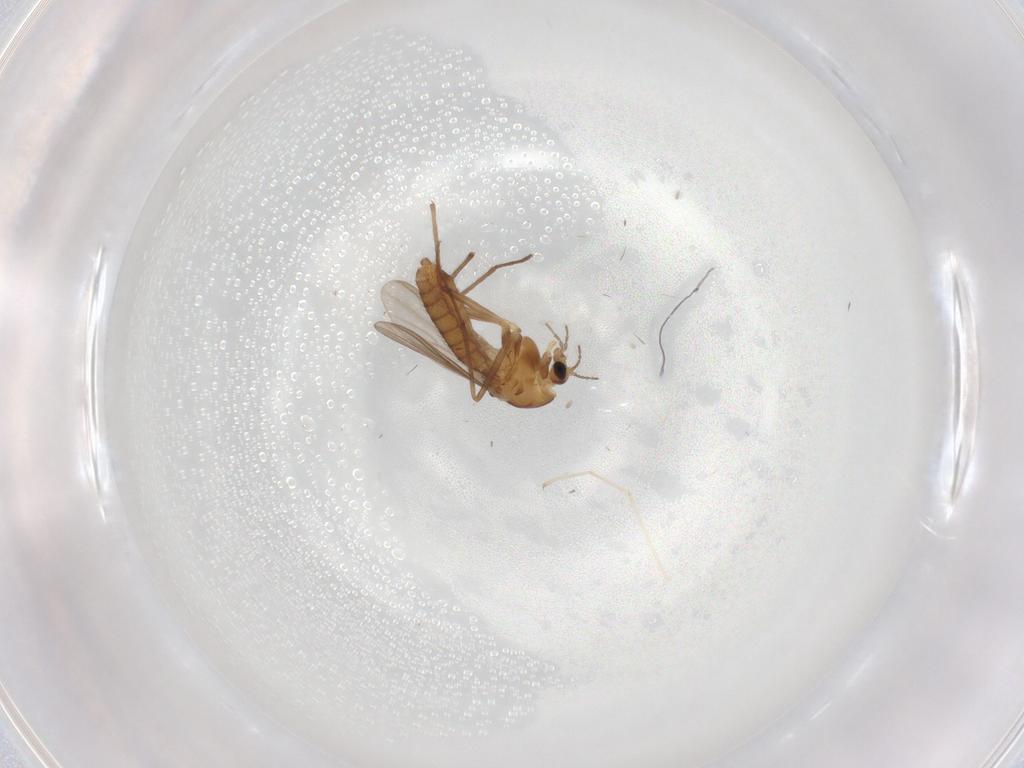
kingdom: Animalia
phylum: Arthropoda
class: Insecta
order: Diptera
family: Chironomidae
